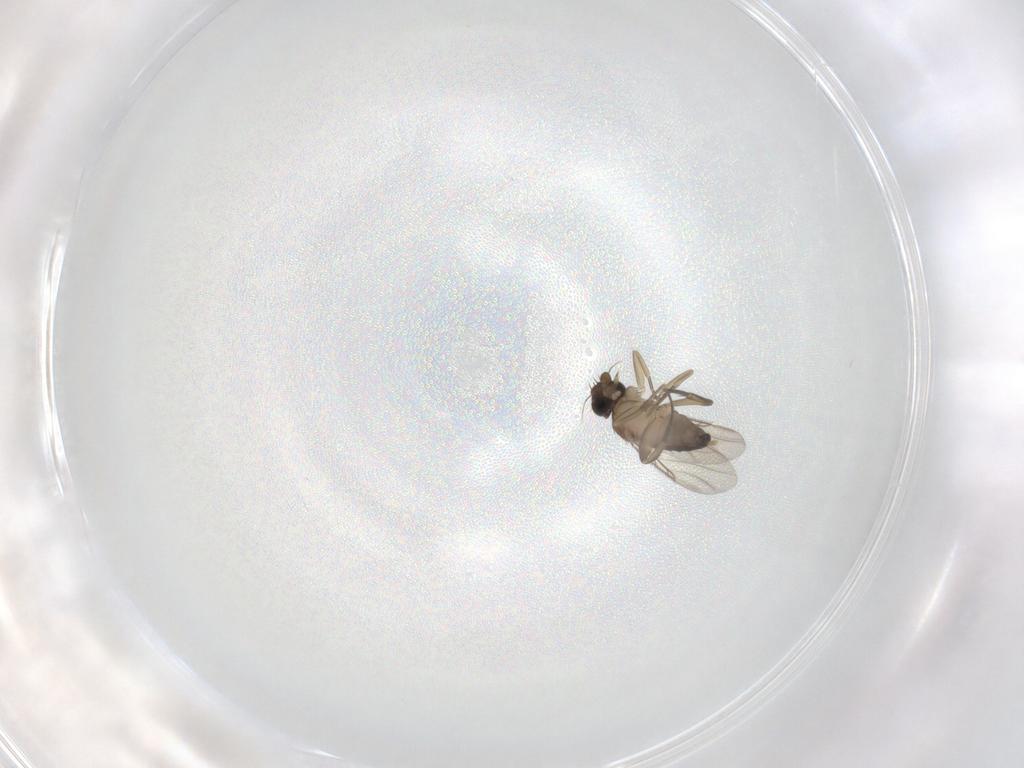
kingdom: Animalia
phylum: Arthropoda
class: Insecta
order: Diptera
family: Phoridae
